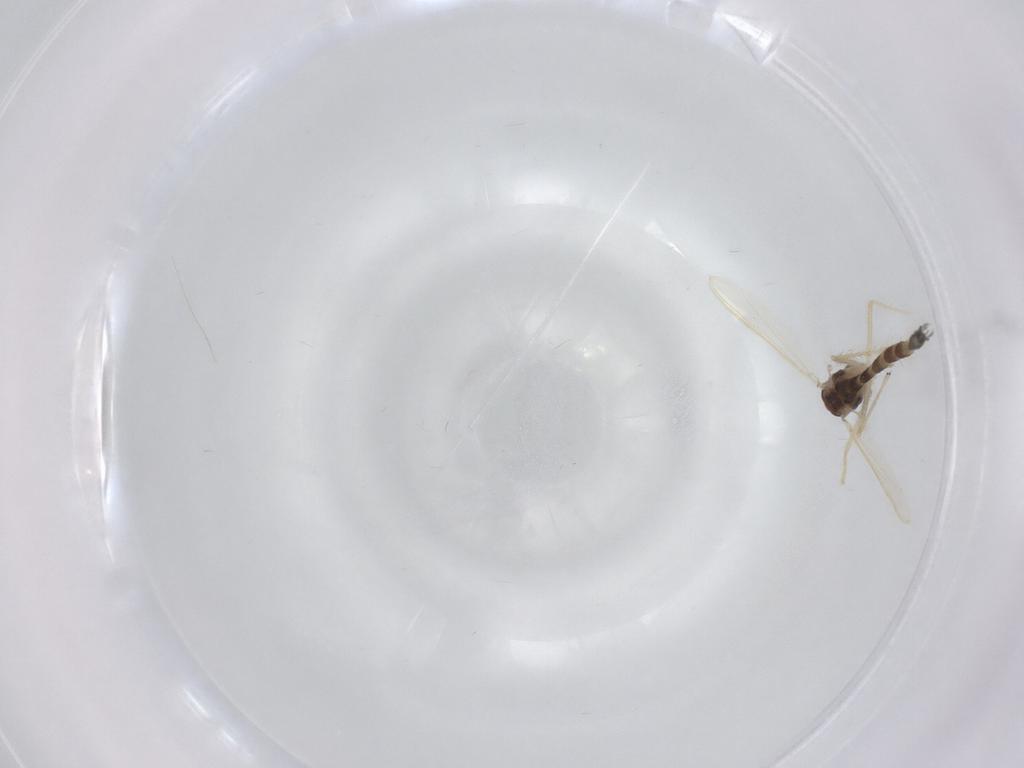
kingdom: Animalia
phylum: Arthropoda
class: Insecta
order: Diptera
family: Chironomidae
